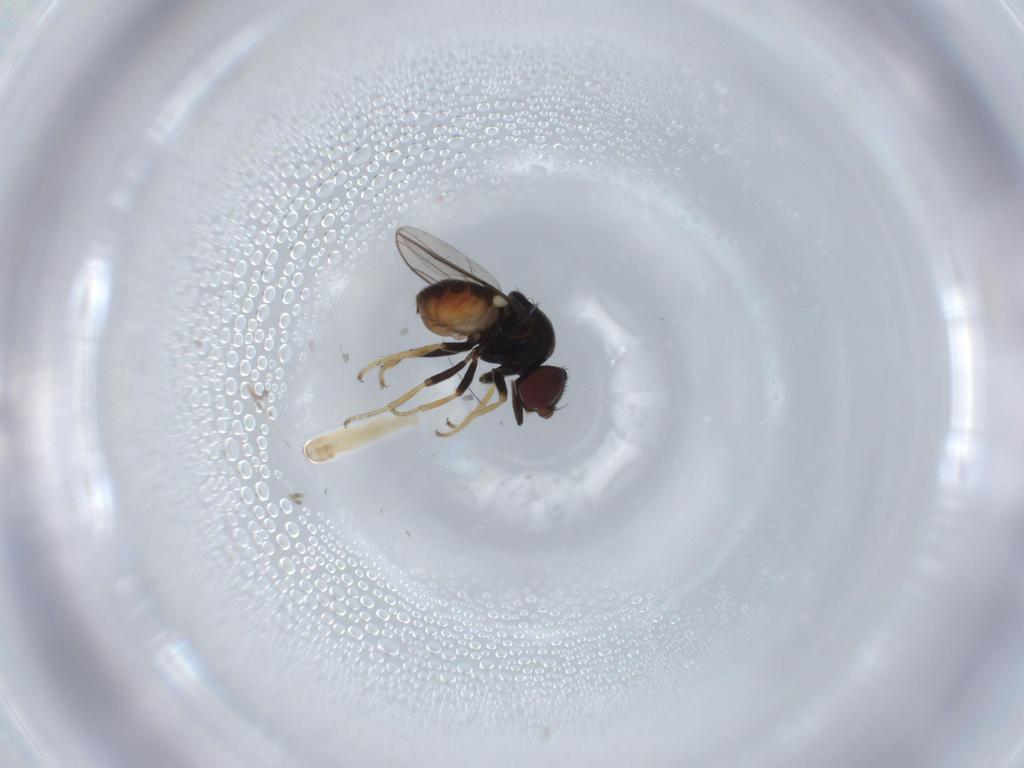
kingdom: Animalia
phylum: Arthropoda
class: Insecta
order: Diptera
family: Chloropidae
